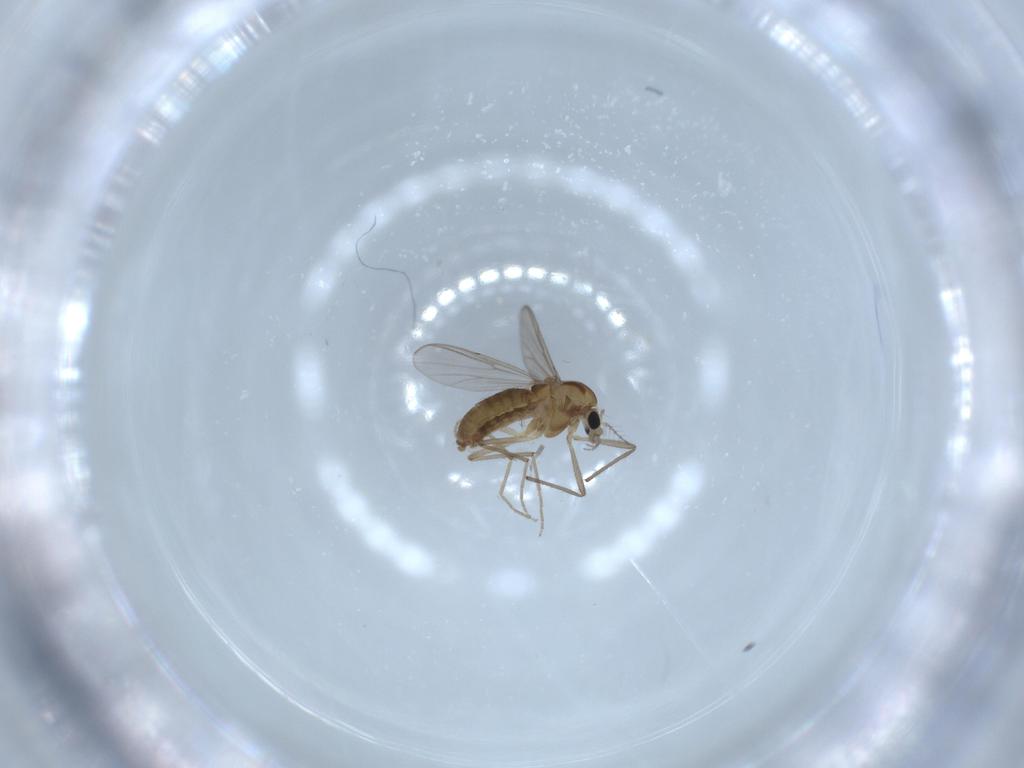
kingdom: Animalia
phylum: Arthropoda
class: Insecta
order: Diptera
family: Chironomidae
